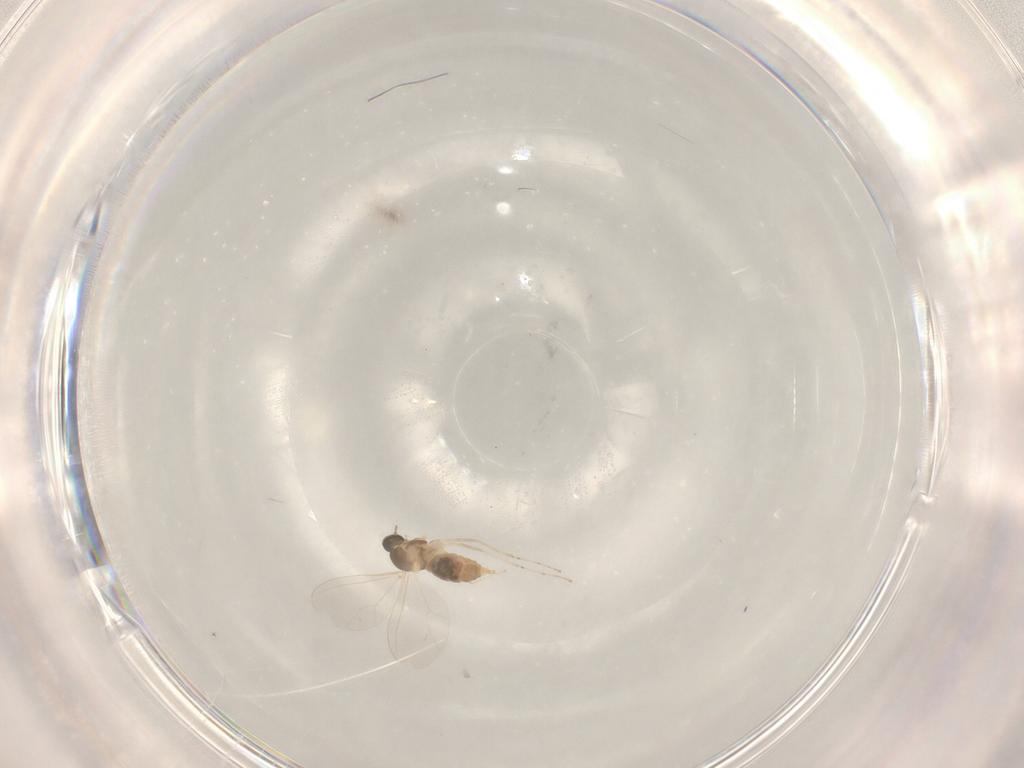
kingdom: Animalia
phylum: Arthropoda
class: Insecta
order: Diptera
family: Cecidomyiidae
